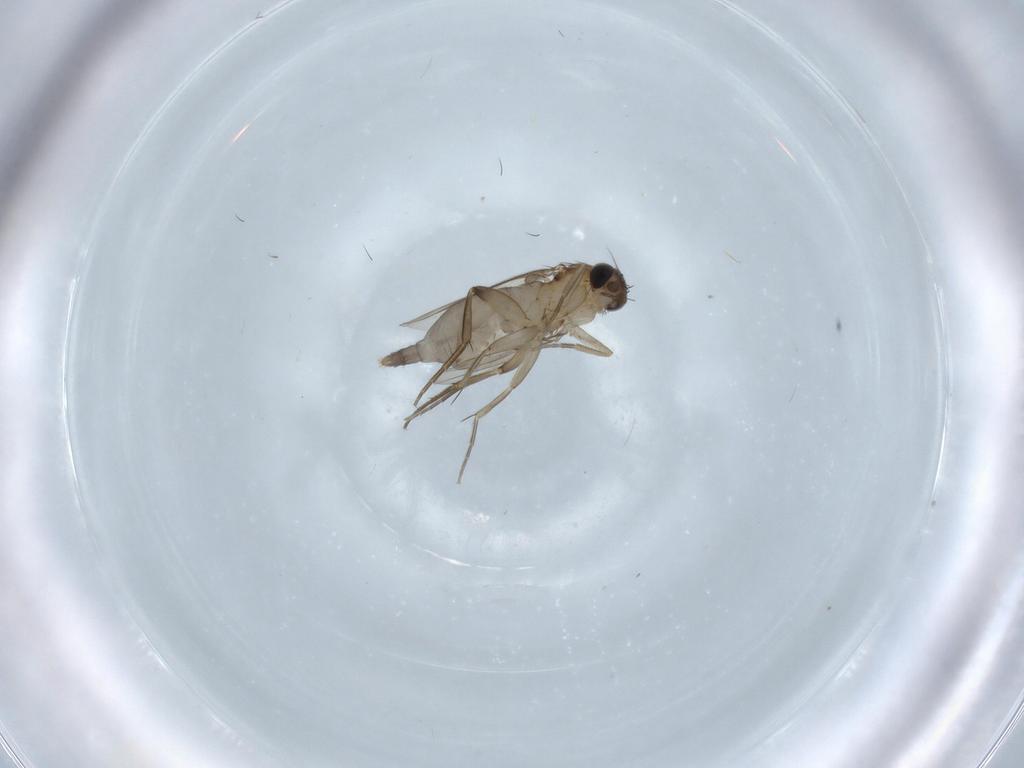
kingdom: Animalia
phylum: Arthropoda
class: Insecta
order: Diptera
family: Phoridae
